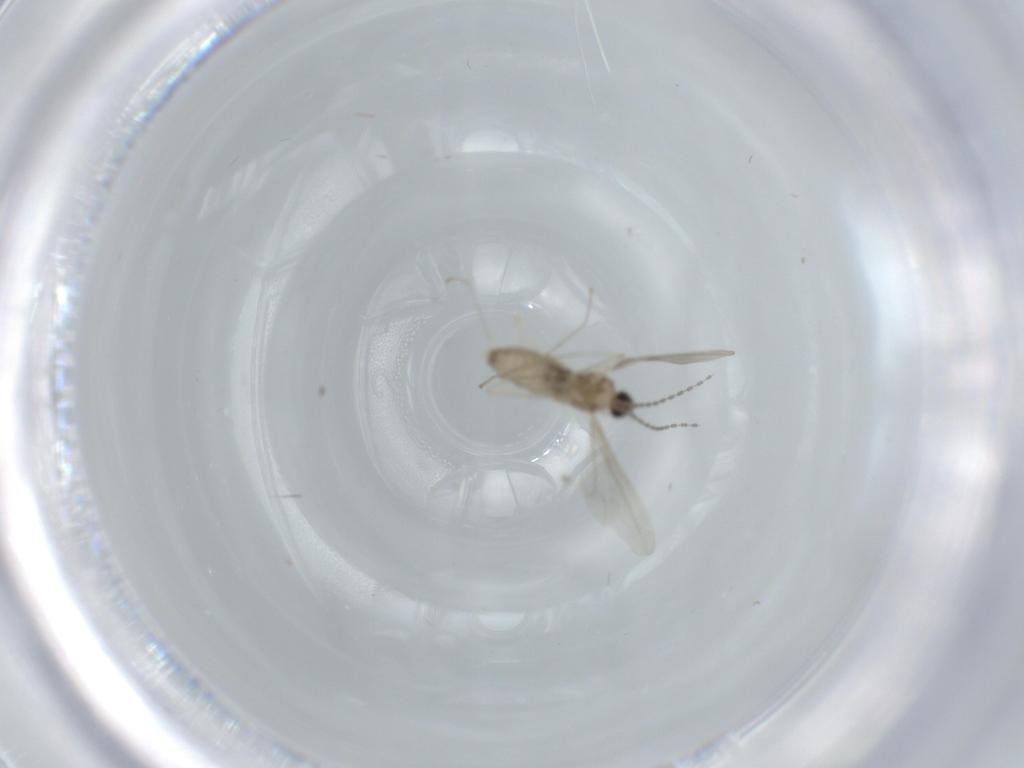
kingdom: Animalia
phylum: Arthropoda
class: Insecta
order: Diptera
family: Cecidomyiidae
